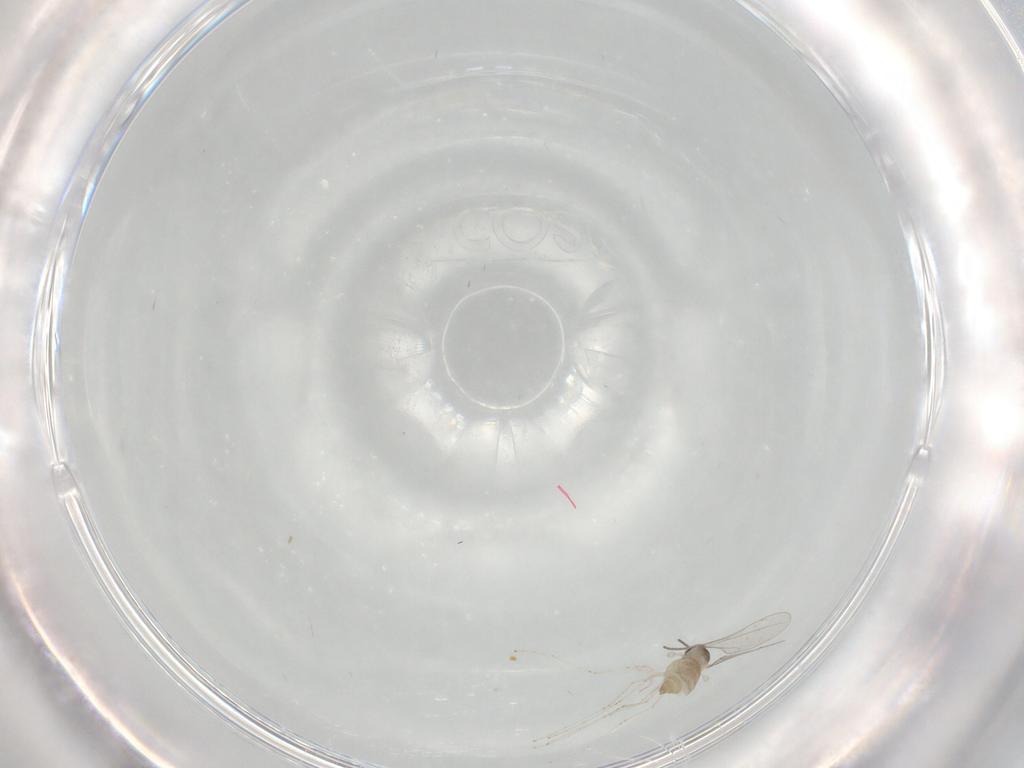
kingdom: Animalia
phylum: Arthropoda
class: Insecta
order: Diptera
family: Cecidomyiidae
